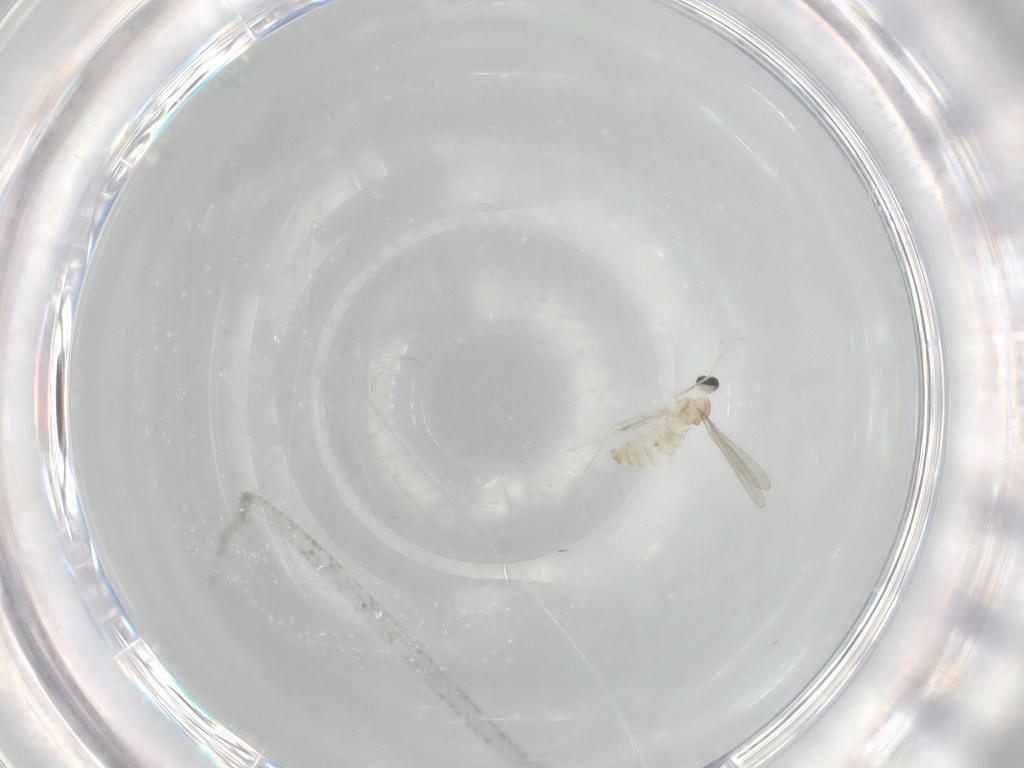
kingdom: Animalia
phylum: Arthropoda
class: Insecta
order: Diptera
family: Cecidomyiidae
